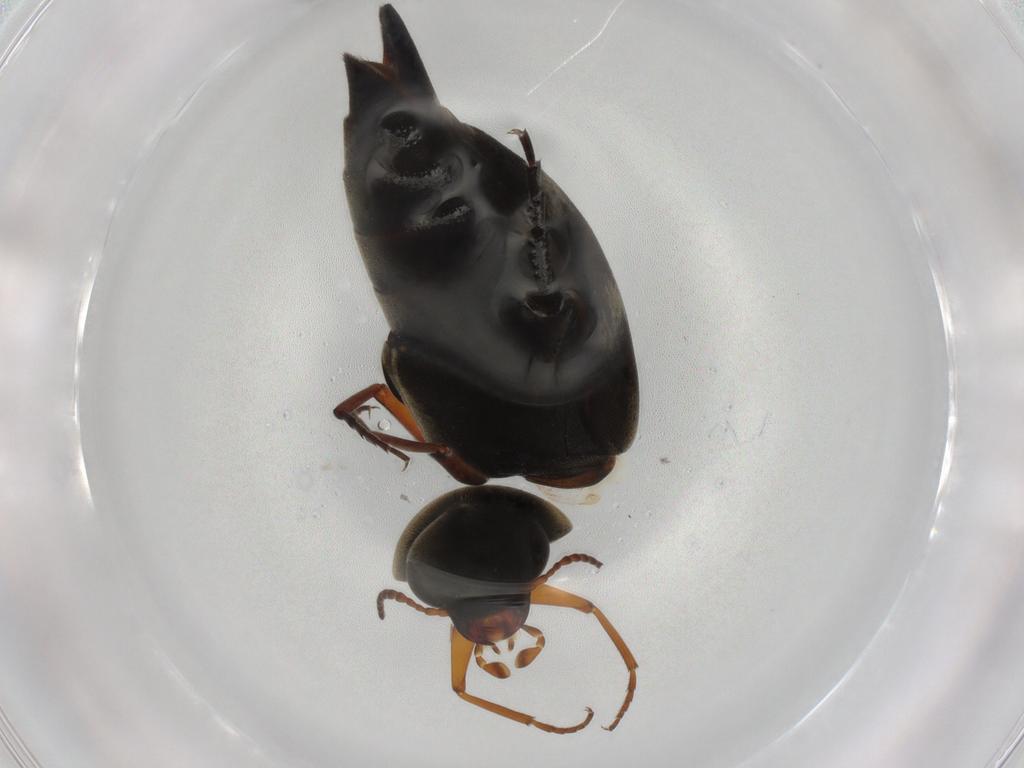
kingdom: Animalia
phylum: Arthropoda
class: Insecta
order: Coleoptera
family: Mordellidae
